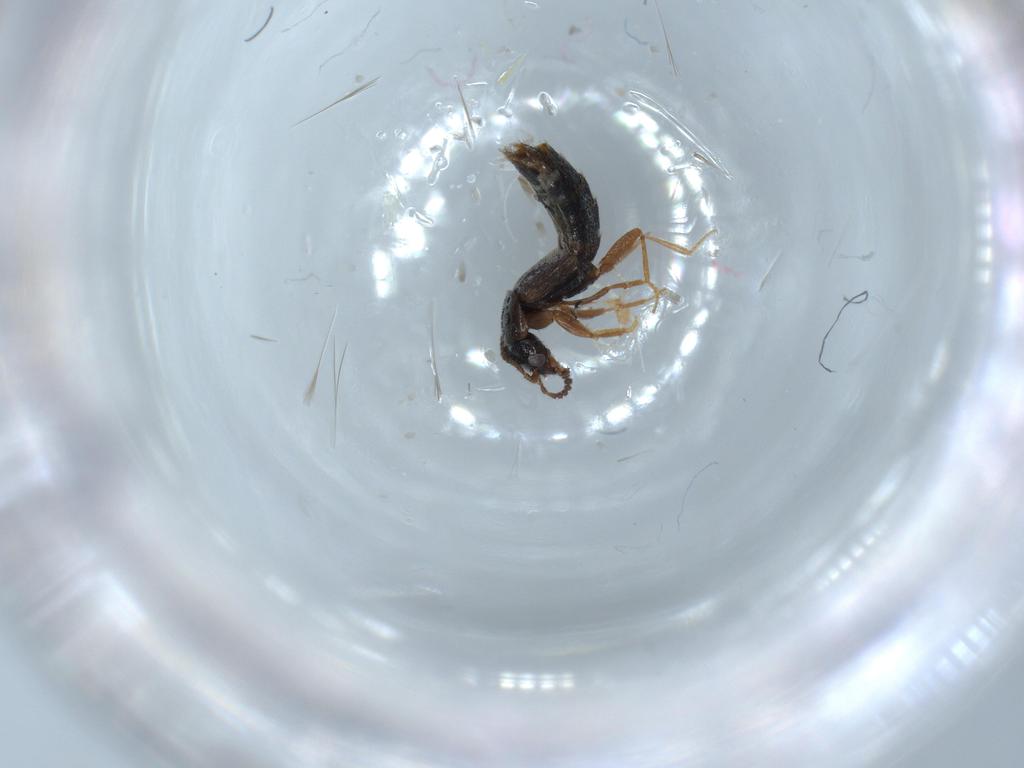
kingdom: Animalia
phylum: Arthropoda
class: Insecta
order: Coleoptera
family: Staphylinidae
